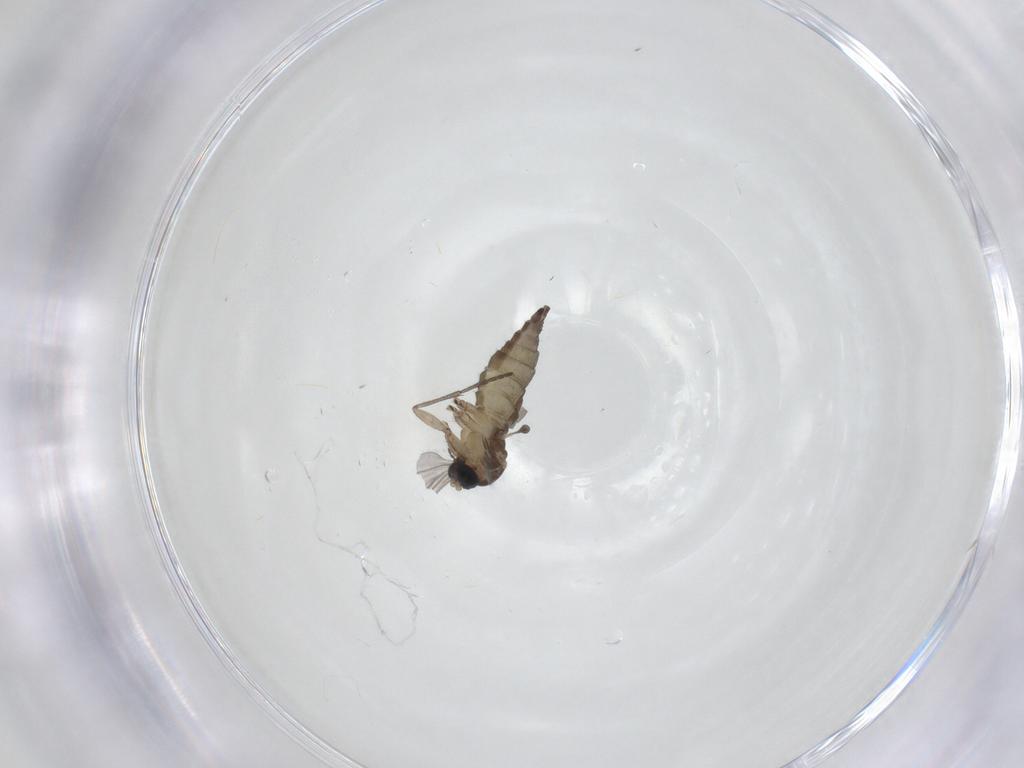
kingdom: Animalia
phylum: Arthropoda
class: Insecta
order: Diptera
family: Sciaridae
